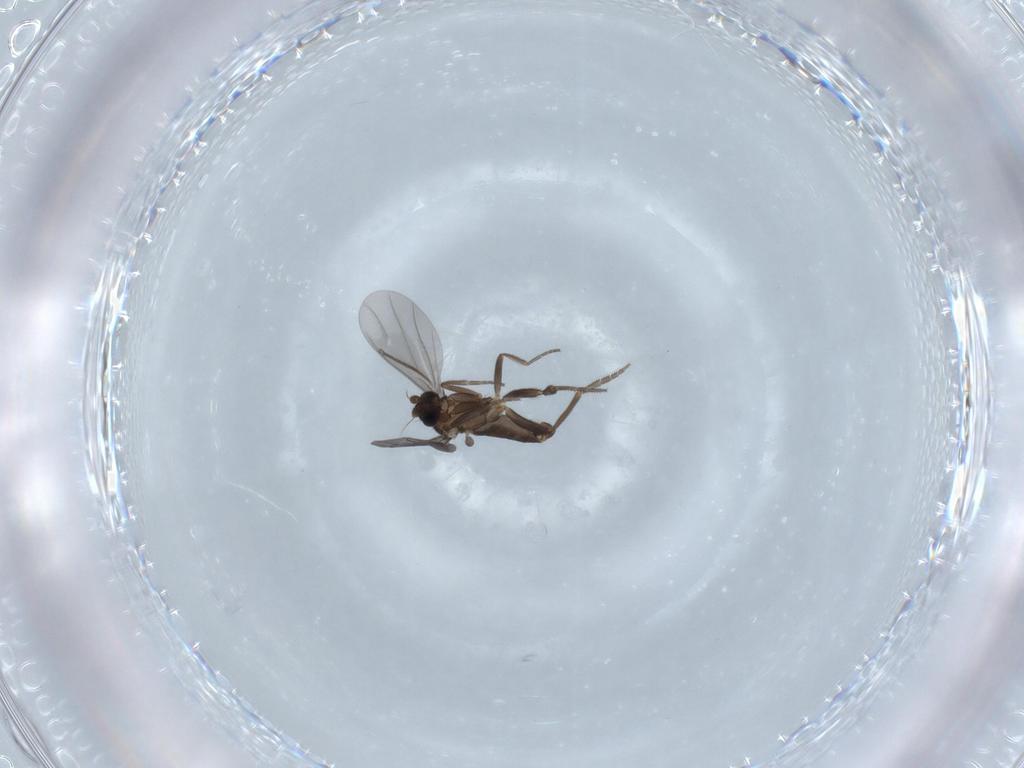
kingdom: Animalia
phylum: Arthropoda
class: Insecta
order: Diptera
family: Phoridae
